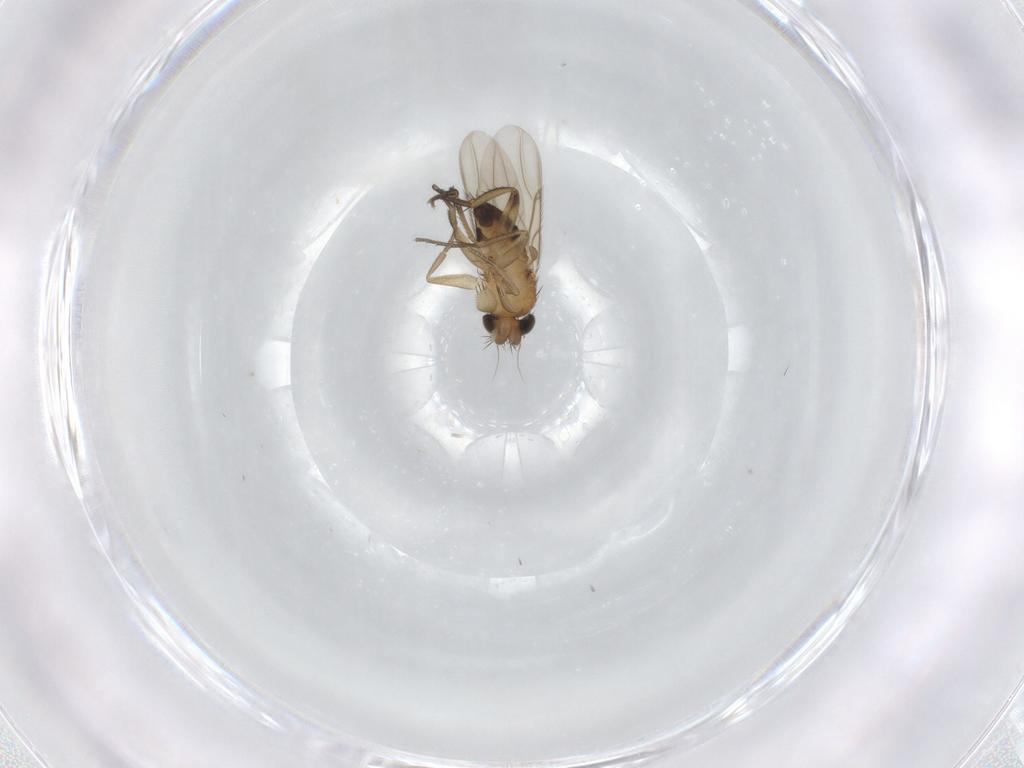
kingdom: Animalia
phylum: Arthropoda
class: Insecta
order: Diptera
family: Phoridae
